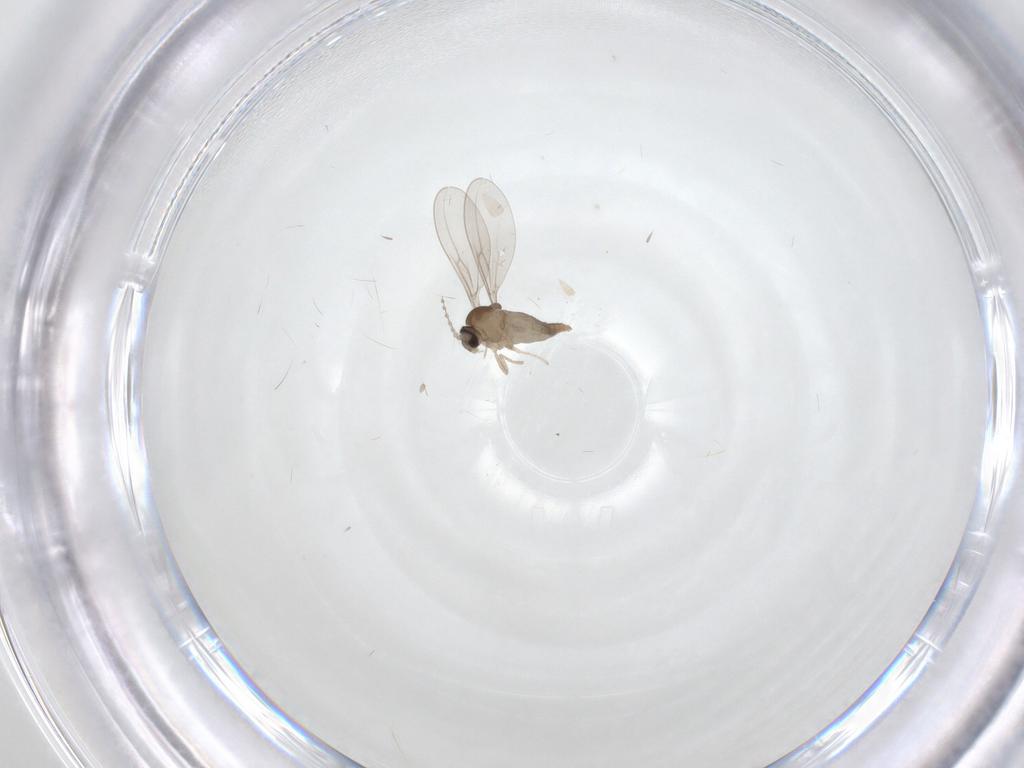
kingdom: Animalia
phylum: Arthropoda
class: Insecta
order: Diptera
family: Cecidomyiidae
